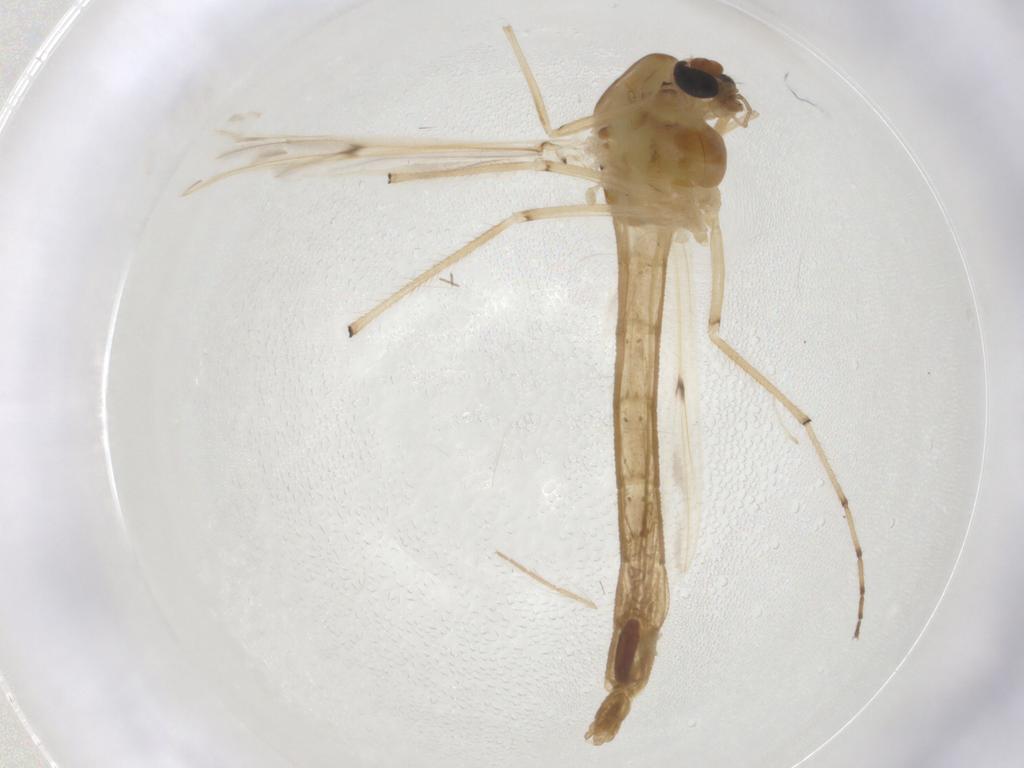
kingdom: Animalia
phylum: Arthropoda
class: Insecta
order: Diptera
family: Chironomidae
